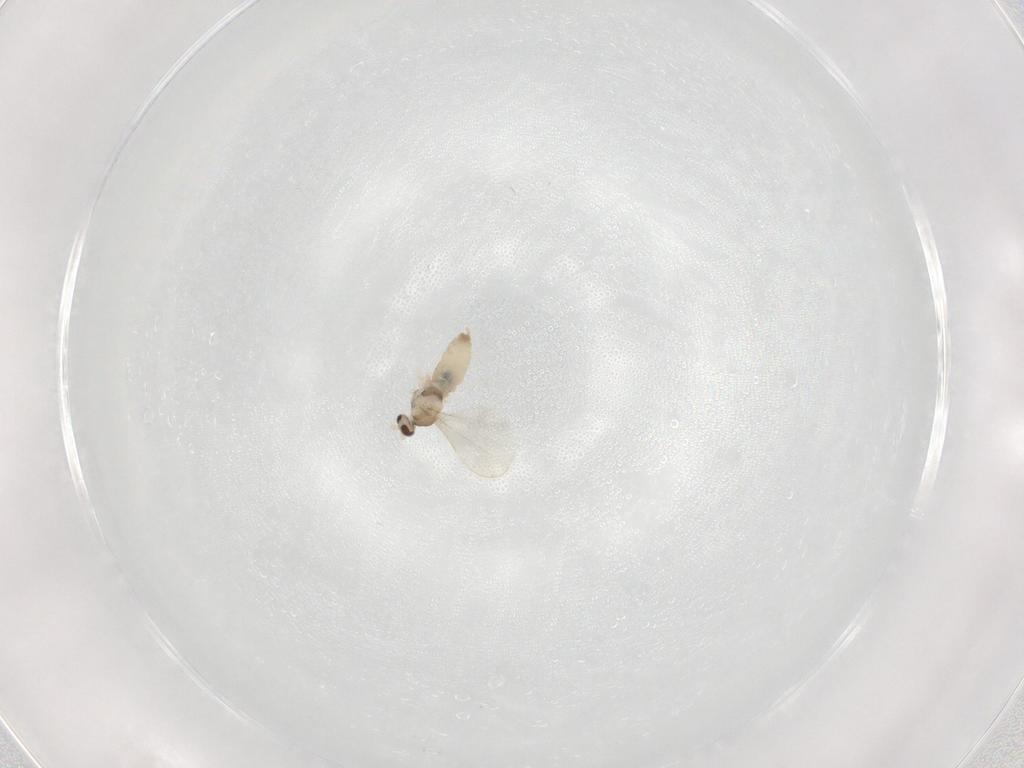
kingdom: Animalia
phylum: Arthropoda
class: Insecta
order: Diptera
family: Cecidomyiidae
